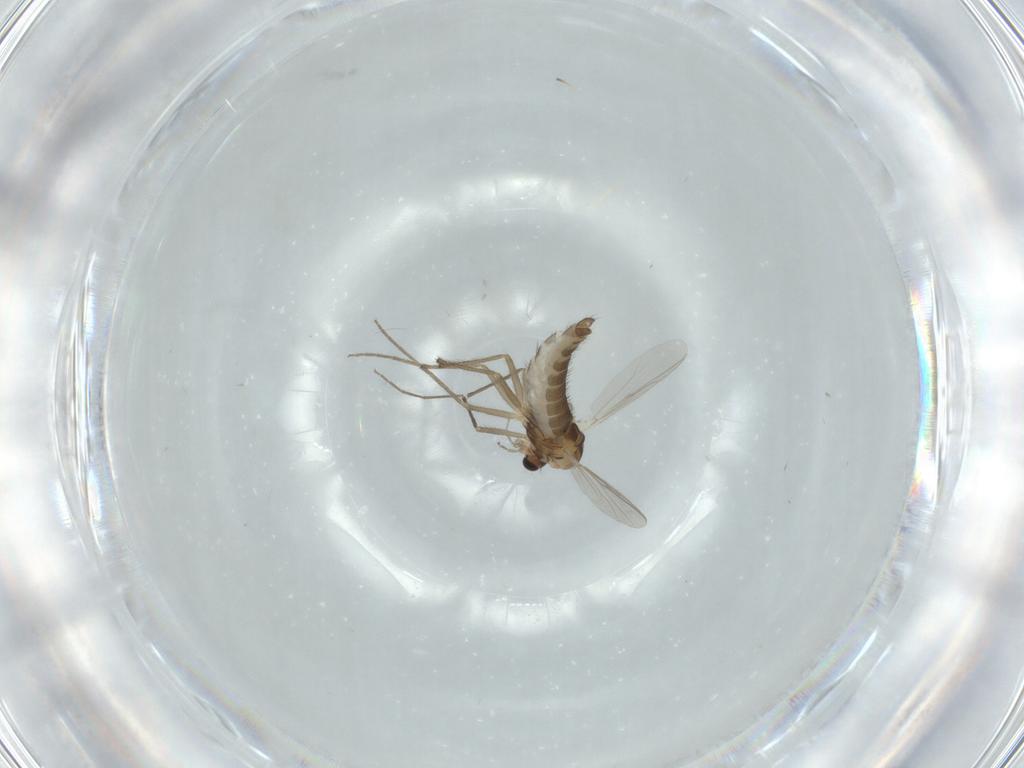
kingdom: Animalia
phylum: Arthropoda
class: Insecta
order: Diptera
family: Chironomidae
